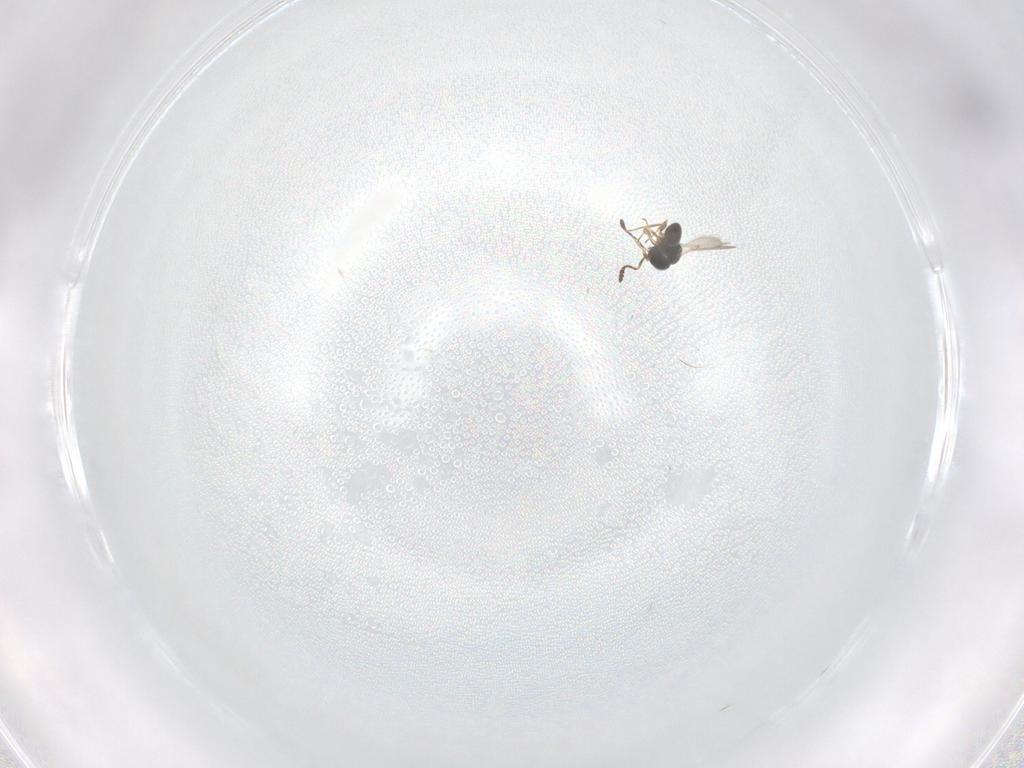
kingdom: Animalia
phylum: Arthropoda
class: Insecta
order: Hymenoptera
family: Scelionidae
